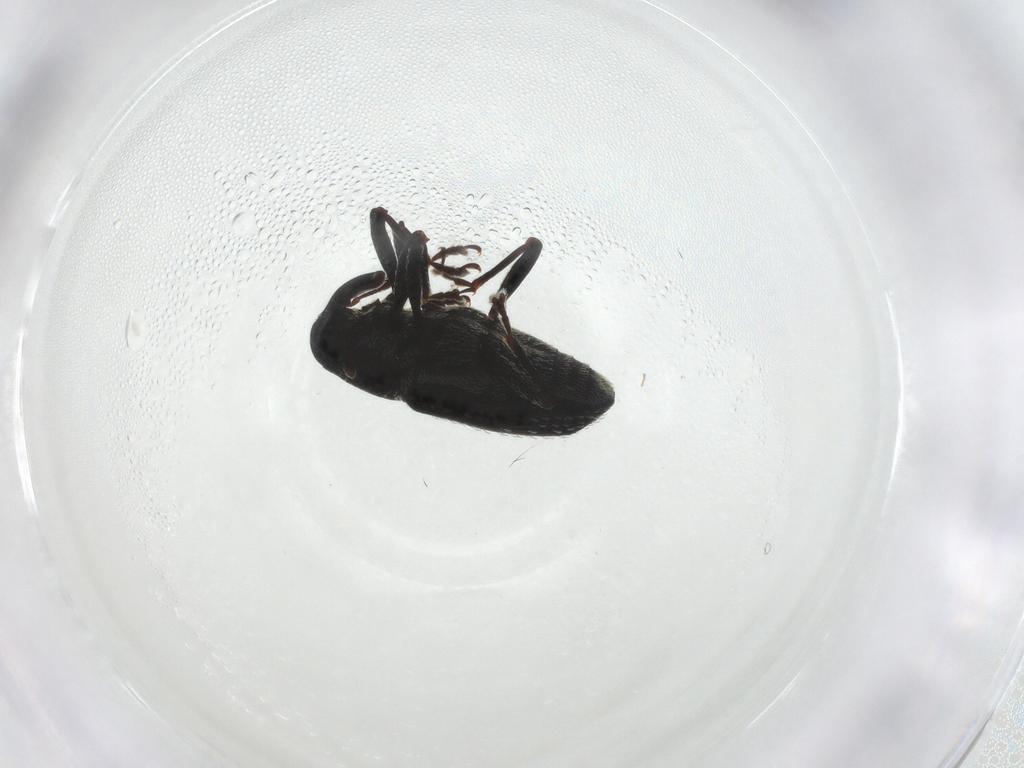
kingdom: Animalia
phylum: Arthropoda
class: Insecta
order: Coleoptera
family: Curculionidae
